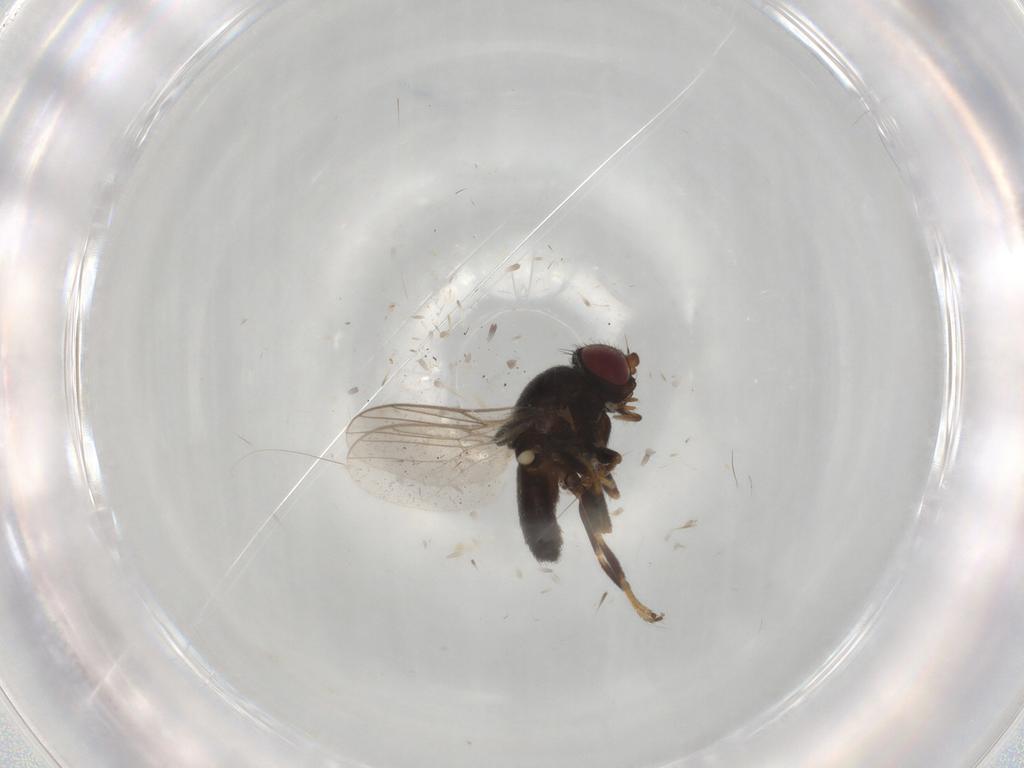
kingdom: Animalia
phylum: Arthropoda
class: Insecta
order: Diptera
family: Chloropidae
